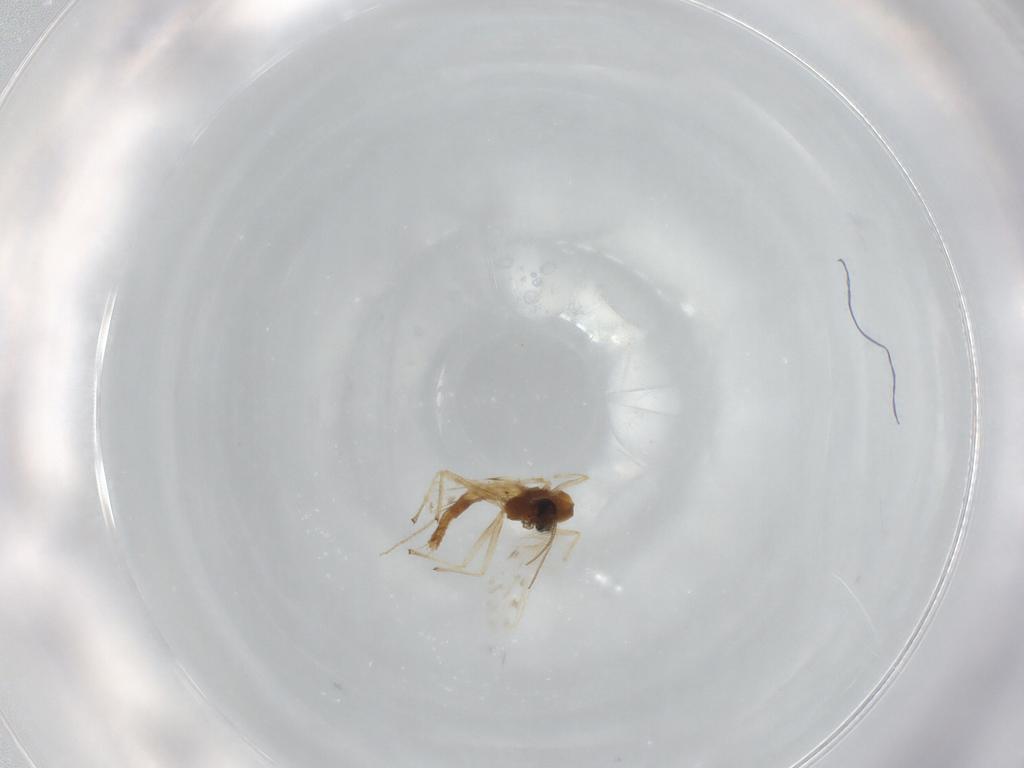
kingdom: Animalia
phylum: Arthropoda
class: Insecta
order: Diptera
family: Chironomidae
